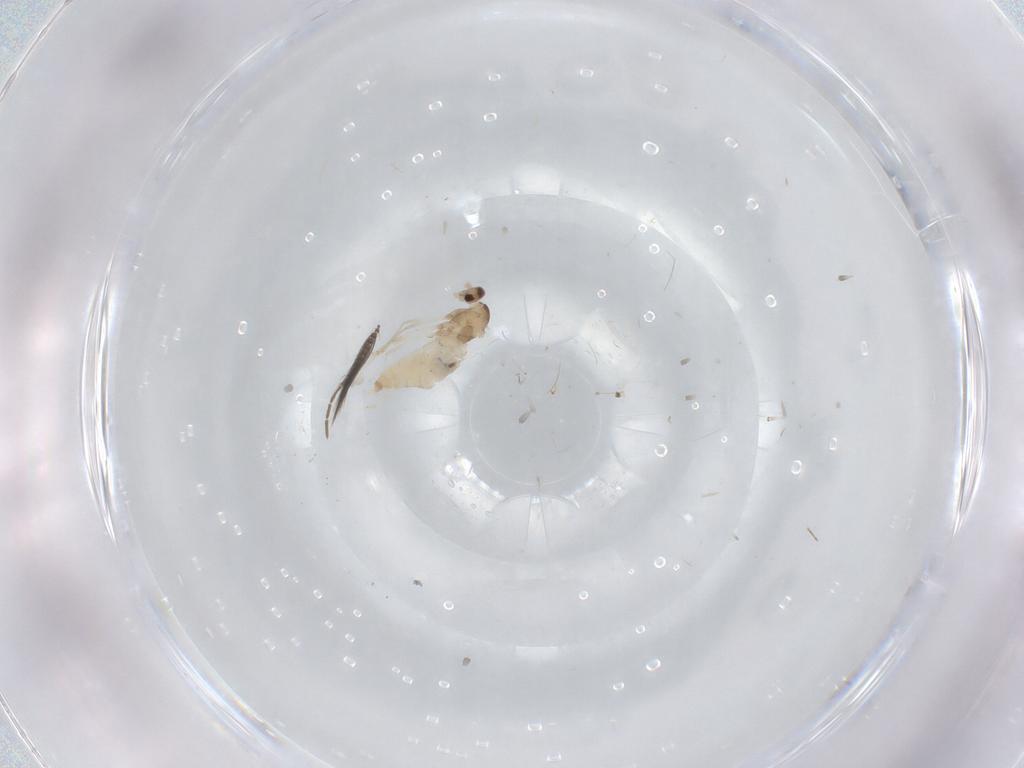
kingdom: Animalia
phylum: Arthropoda
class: Insecta
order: Diptera
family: Cecidomyiidae
